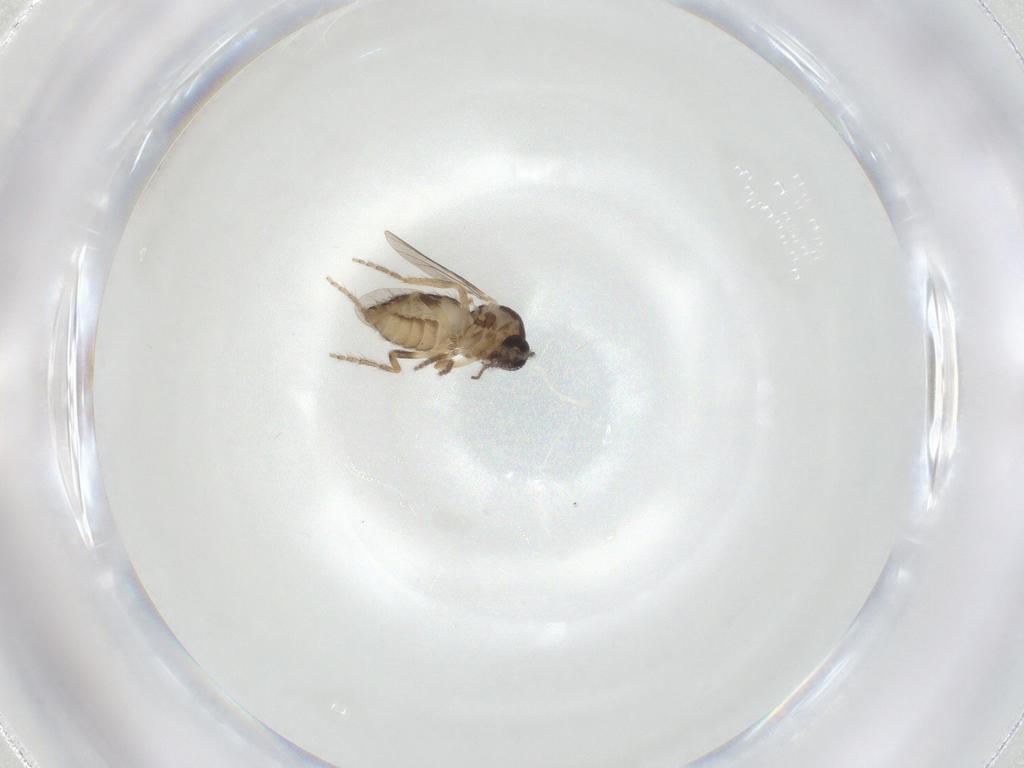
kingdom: Animalia
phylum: Arthropoda
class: Insecta
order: Diptera
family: Ceratopogonidae
